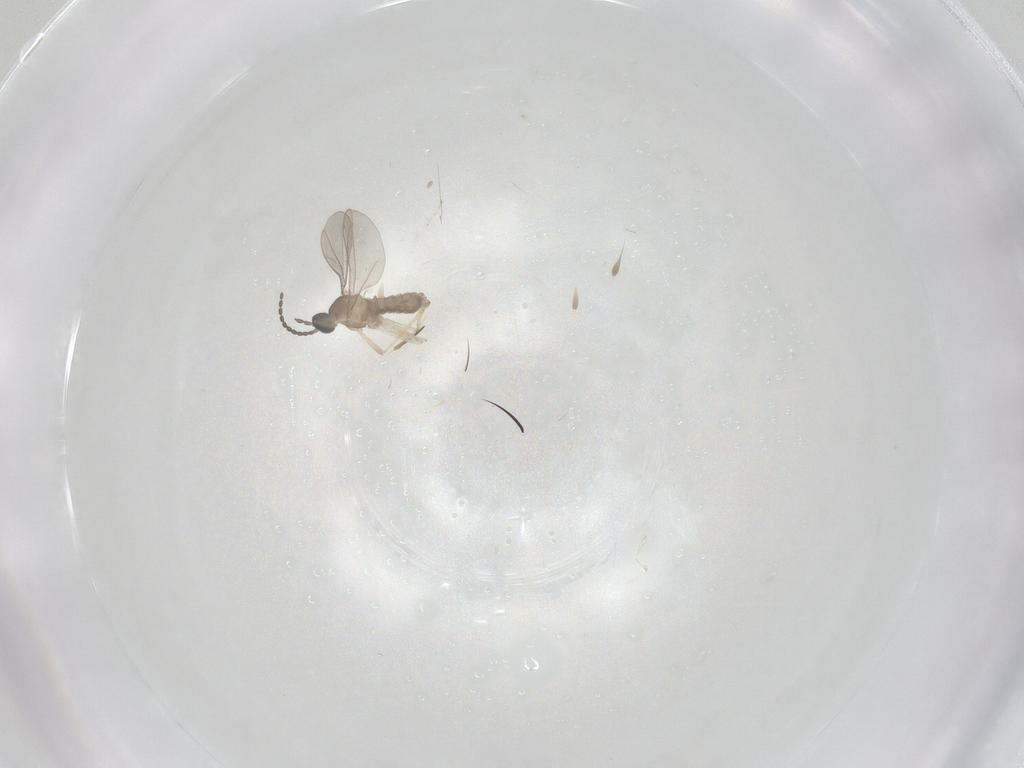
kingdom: Animalia
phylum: Arthropoda
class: Insecta
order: Diptera
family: Cecidomyiidae
